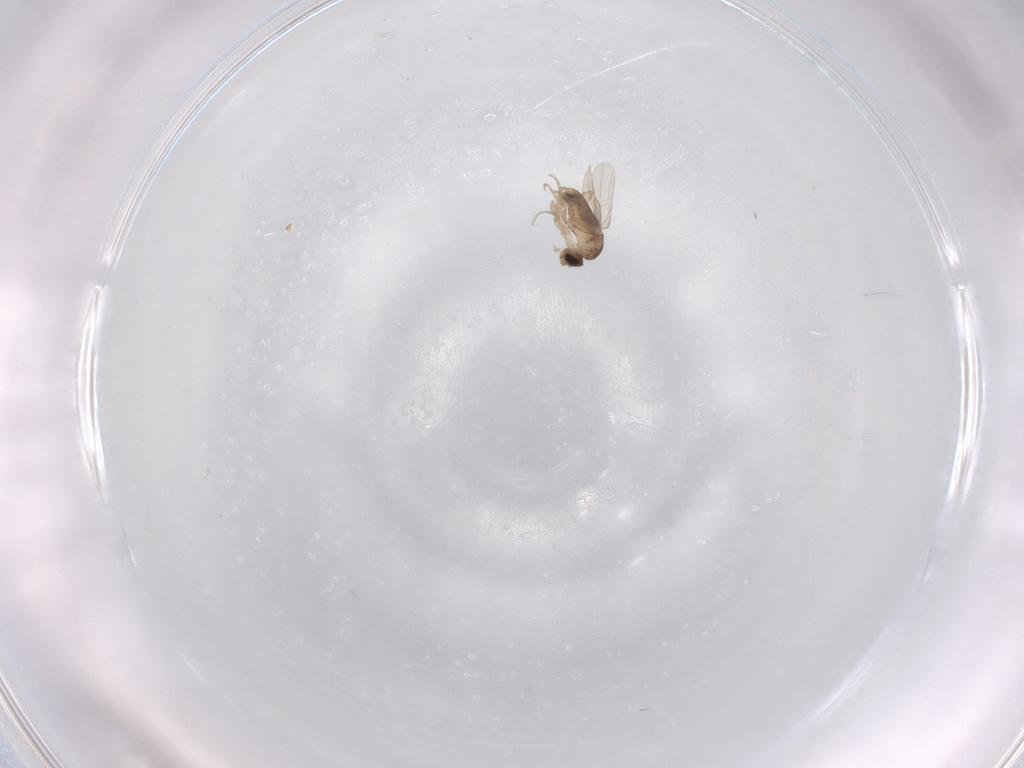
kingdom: Animalia
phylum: Arthropoda
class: Insecta
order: Diptera
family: Phoridae
